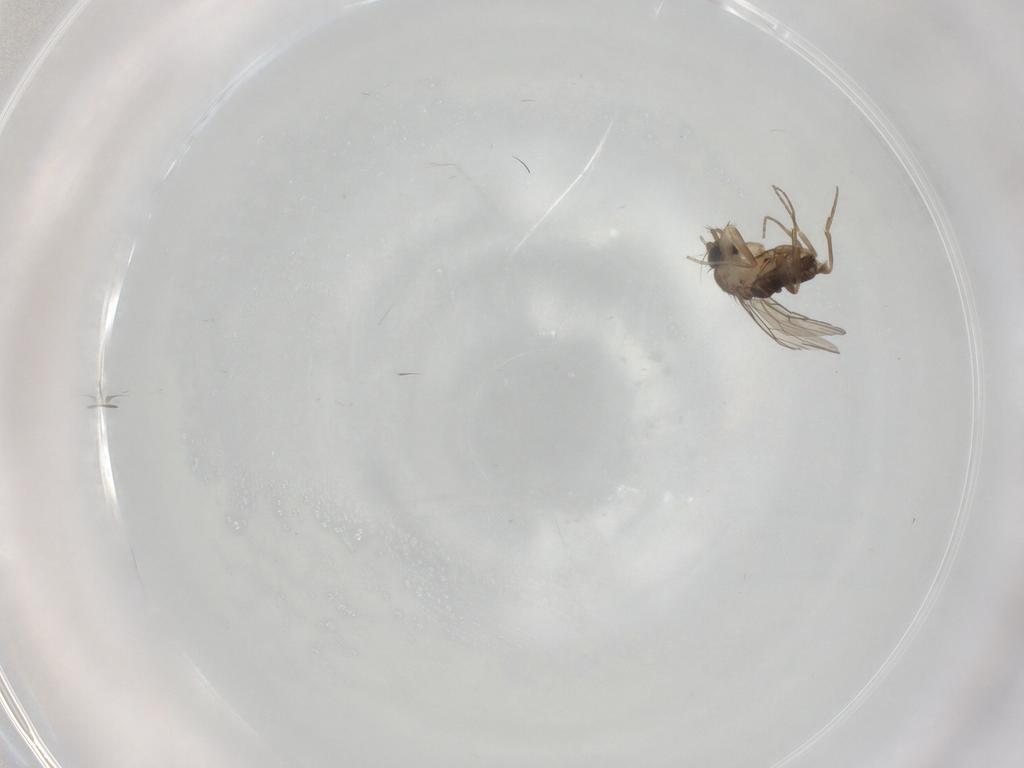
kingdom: Animalia
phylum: Arthropoda
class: Insecta
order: Diptera
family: Phoridae
